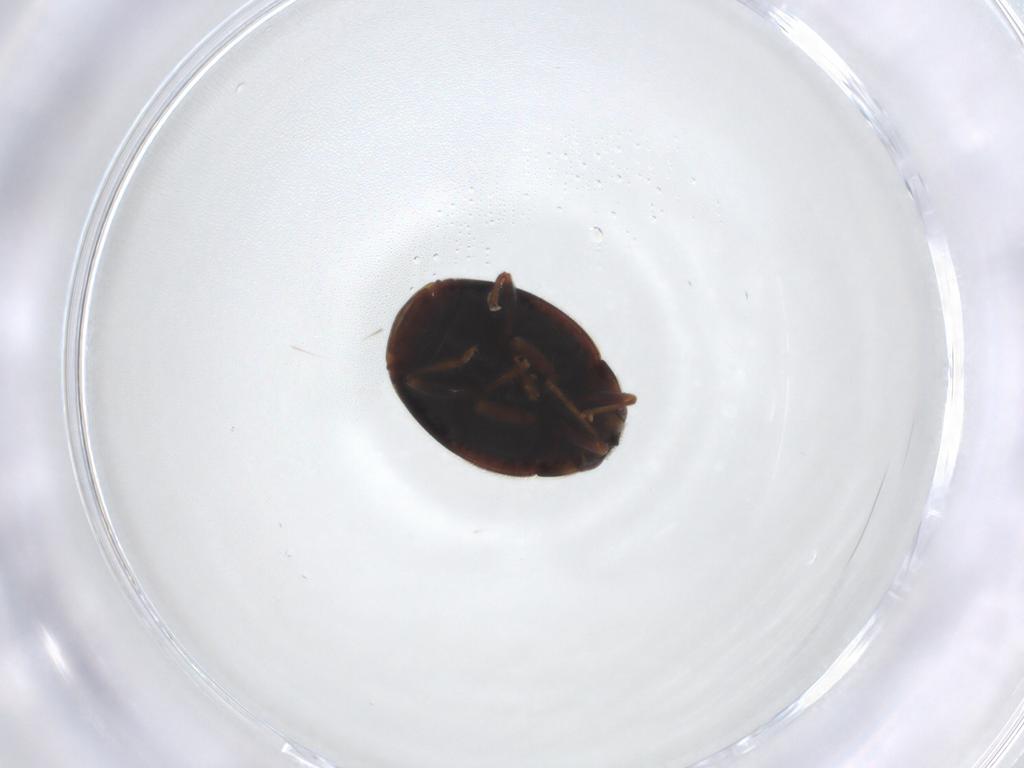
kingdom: Animalia
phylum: Arthropoda
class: Insecta
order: Coleoptera
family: Coccinellidae
